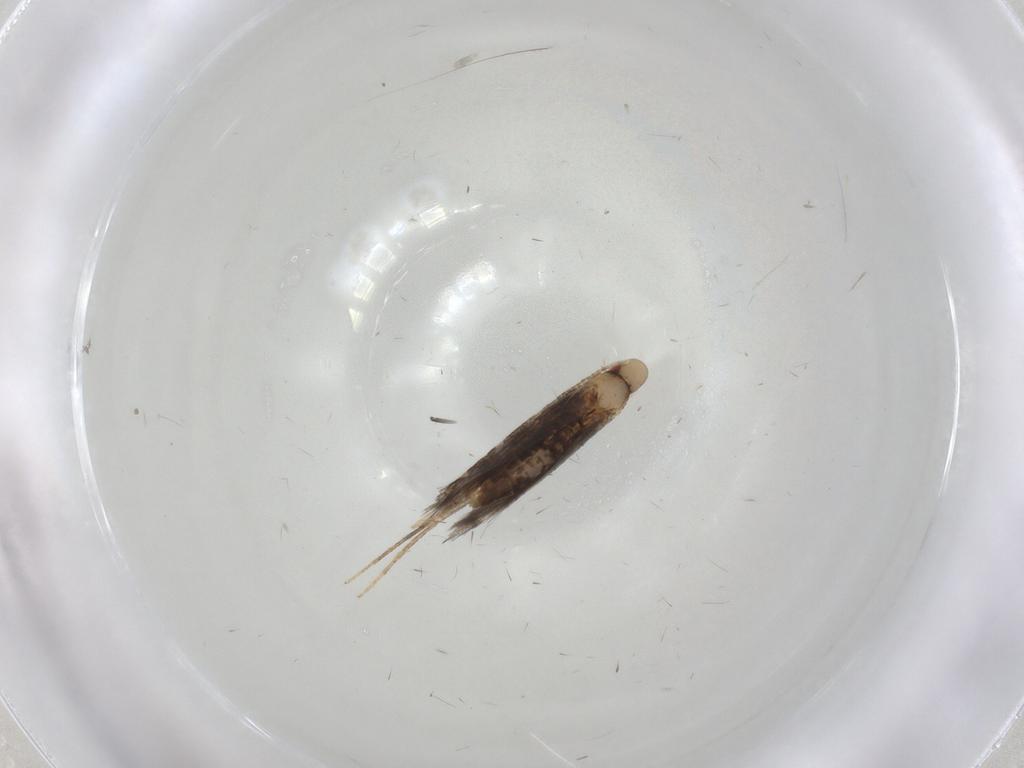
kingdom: Animalia
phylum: Arthropoda
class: Insecta
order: Lepidoptera
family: Gracillariidae
